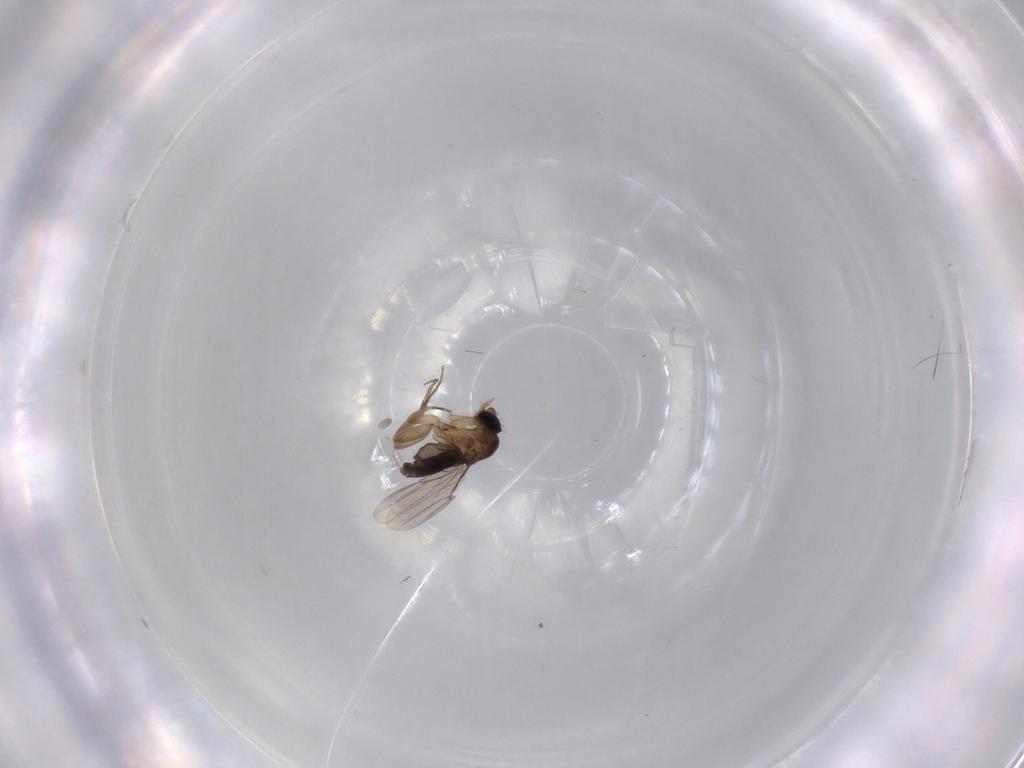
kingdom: Animalia
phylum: Arthropoda
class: Insecta
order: Diptera
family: Phoridae
